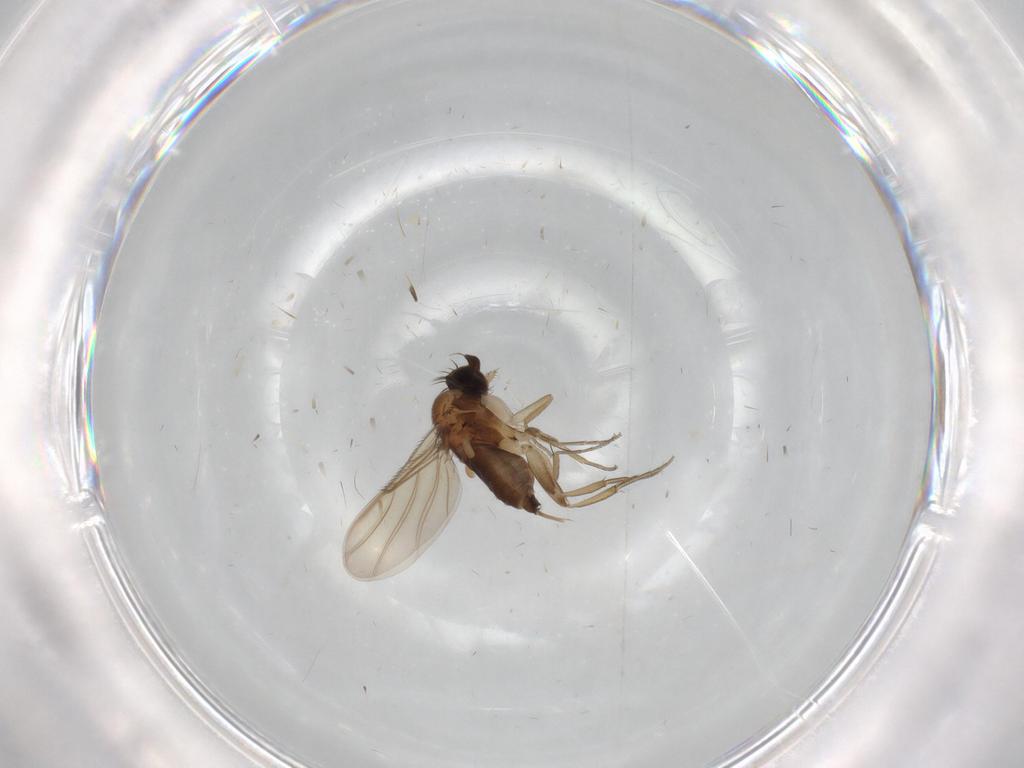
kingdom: Animalia
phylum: Arthropoda
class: Insecta
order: Diptera
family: Phoridae
